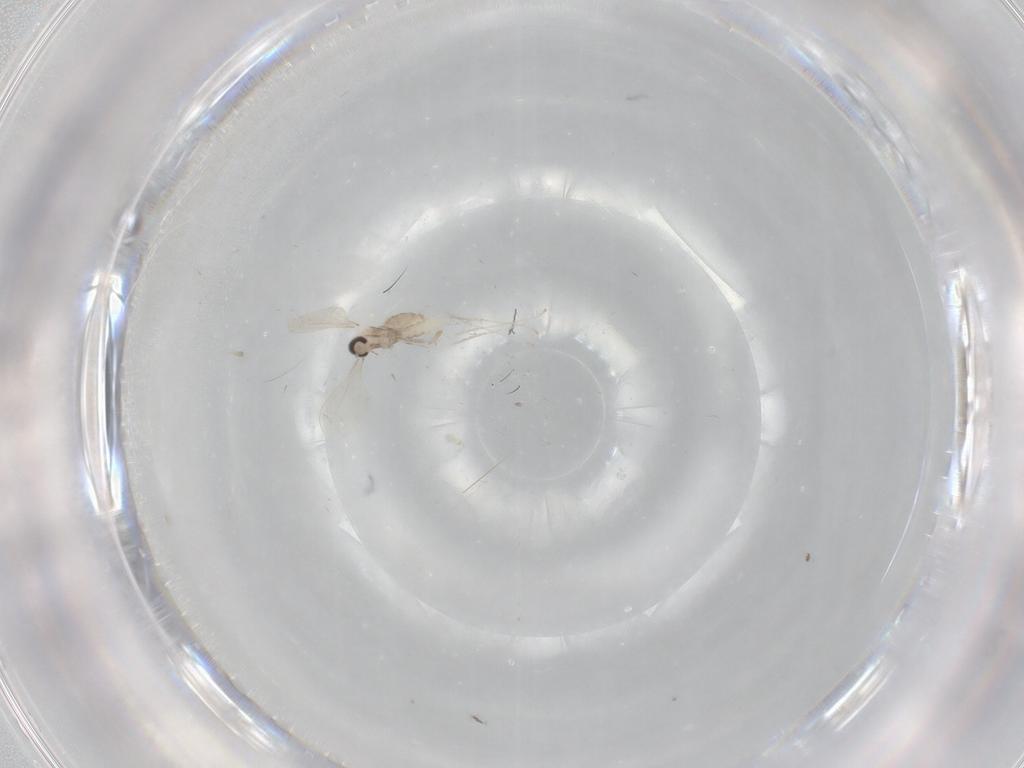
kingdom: Animalia
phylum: Arthropoda
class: Insecta
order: Diptera
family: Cecidomyiidae
